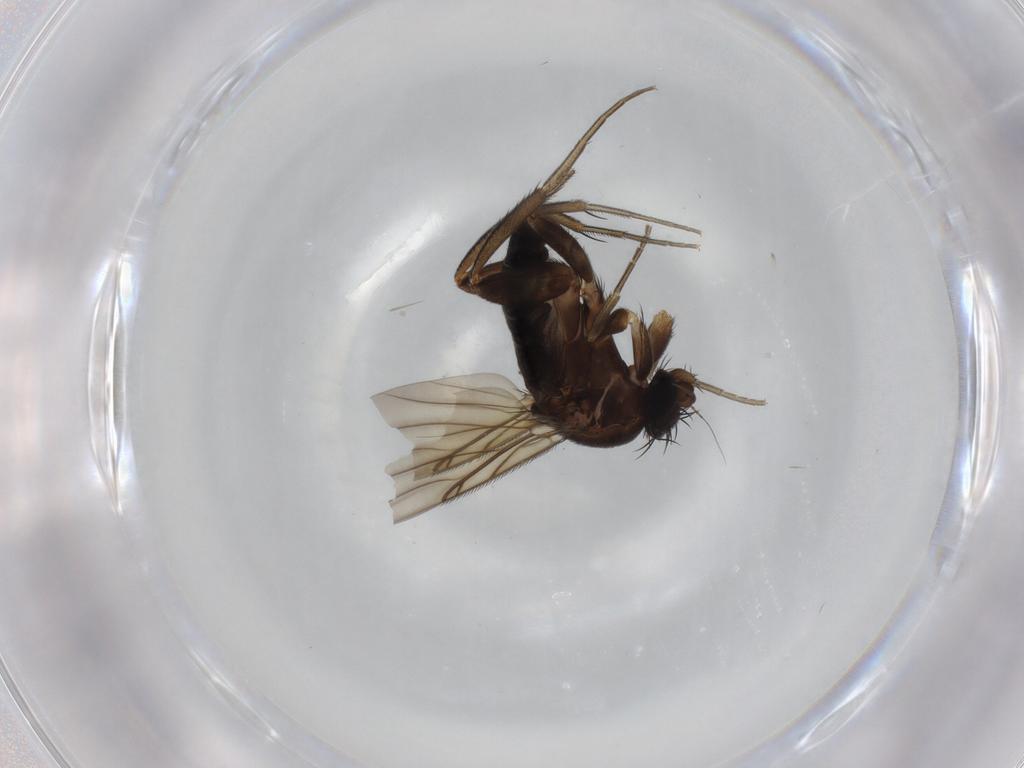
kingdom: Animalia
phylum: Arthropoda
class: Insecta
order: Diptera
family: Phoridae
